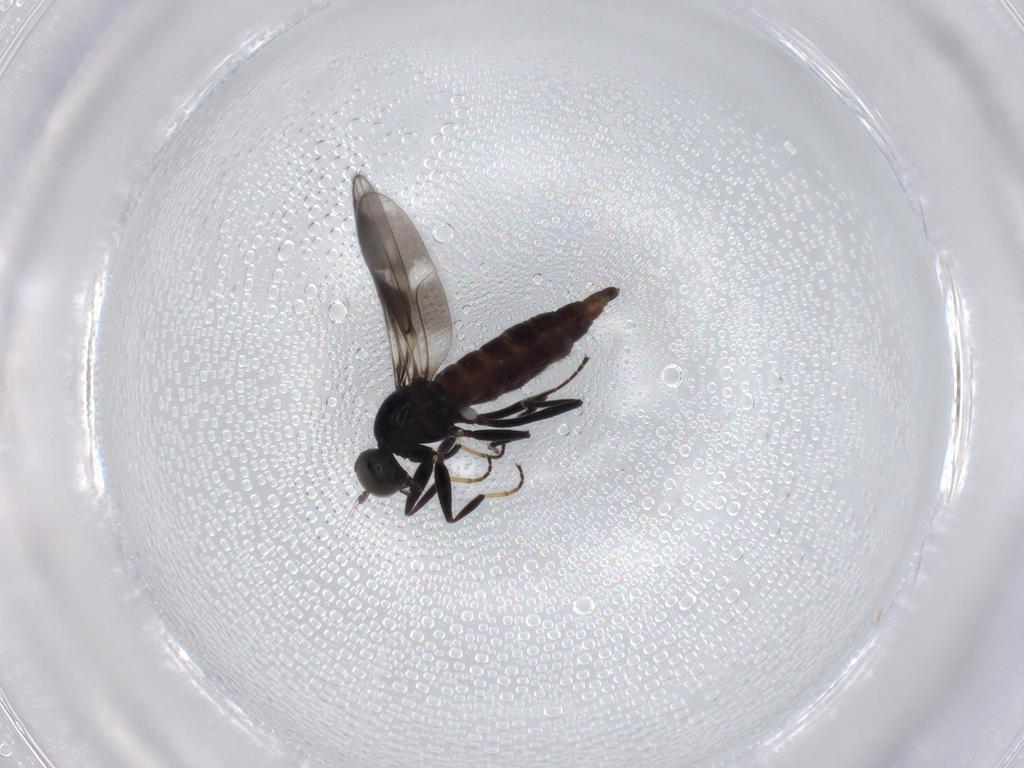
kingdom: Animalia
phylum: Arthropoda
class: Insecta
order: Diptera
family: Hybotidae
